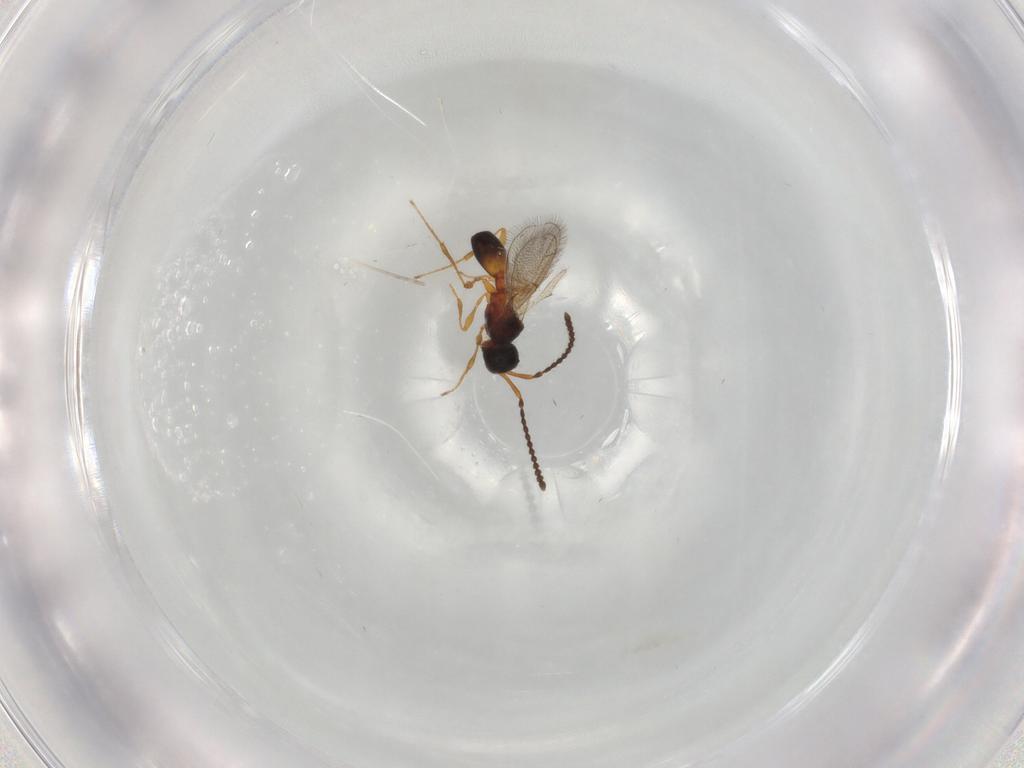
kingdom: Animalia
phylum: Arthropoda
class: Insecta
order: Hymenoptera
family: Diapriidae
